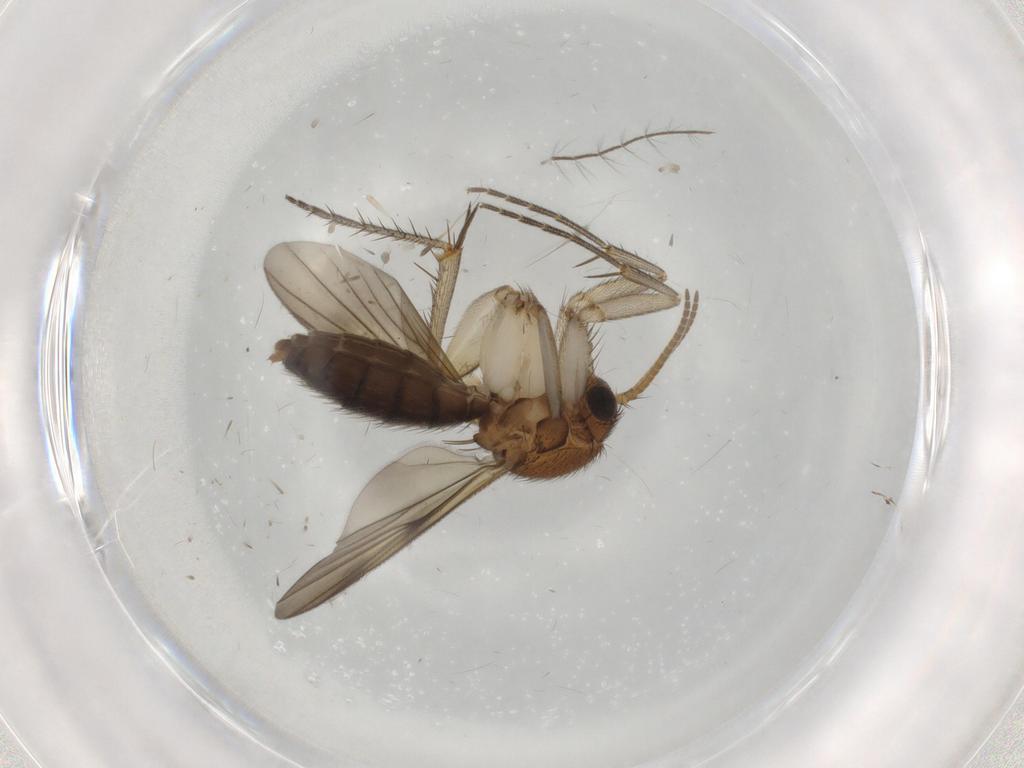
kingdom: Animalia
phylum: Arthropoda
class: Insecta
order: Diptera
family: Mycetophilidae
